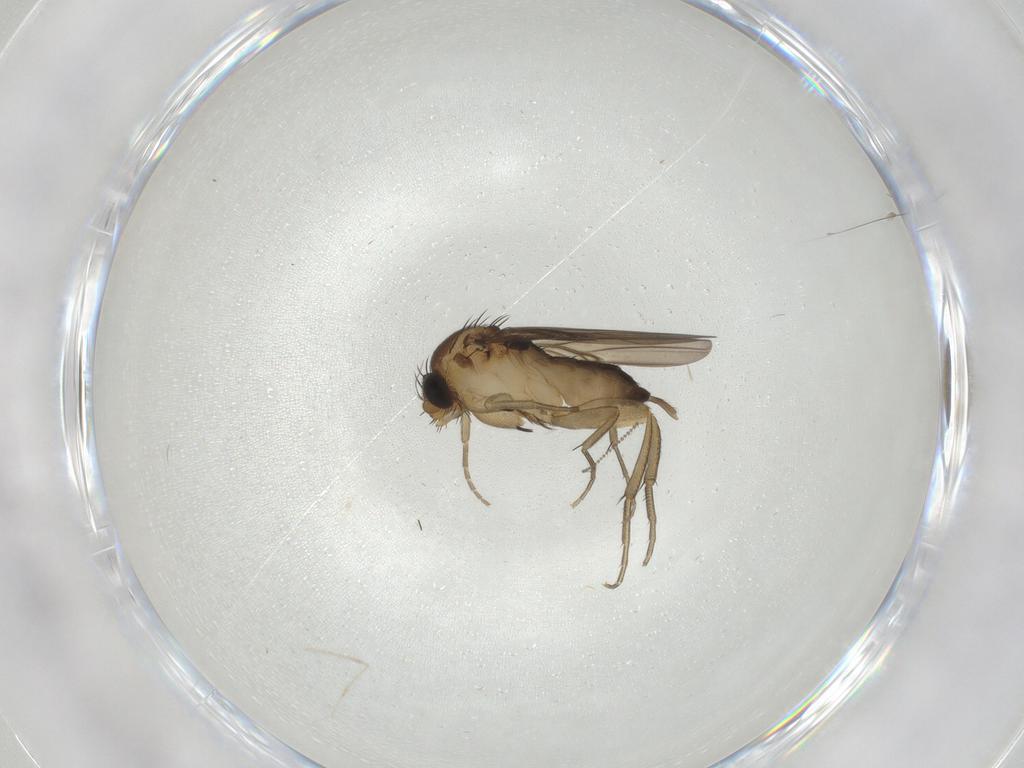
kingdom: Animalia
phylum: Arthropoda
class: Insecta
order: Diptera
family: Phoridae
